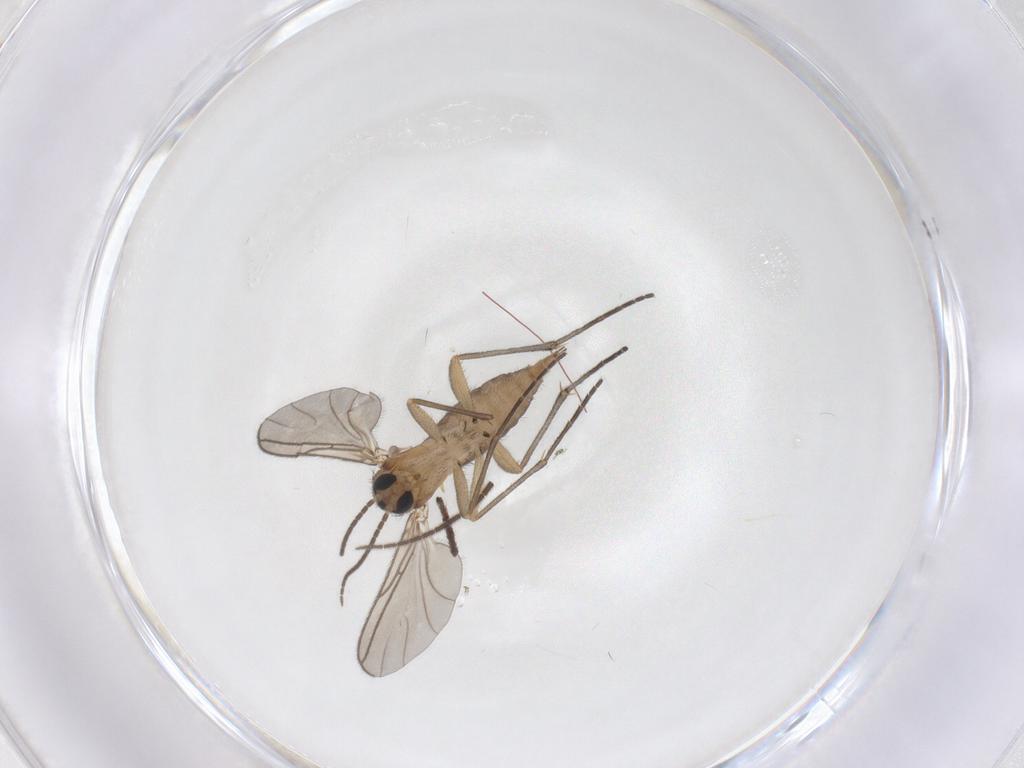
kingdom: Animalia
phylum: Arthropoda
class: Insecta
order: Diptera
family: Sciaridae
